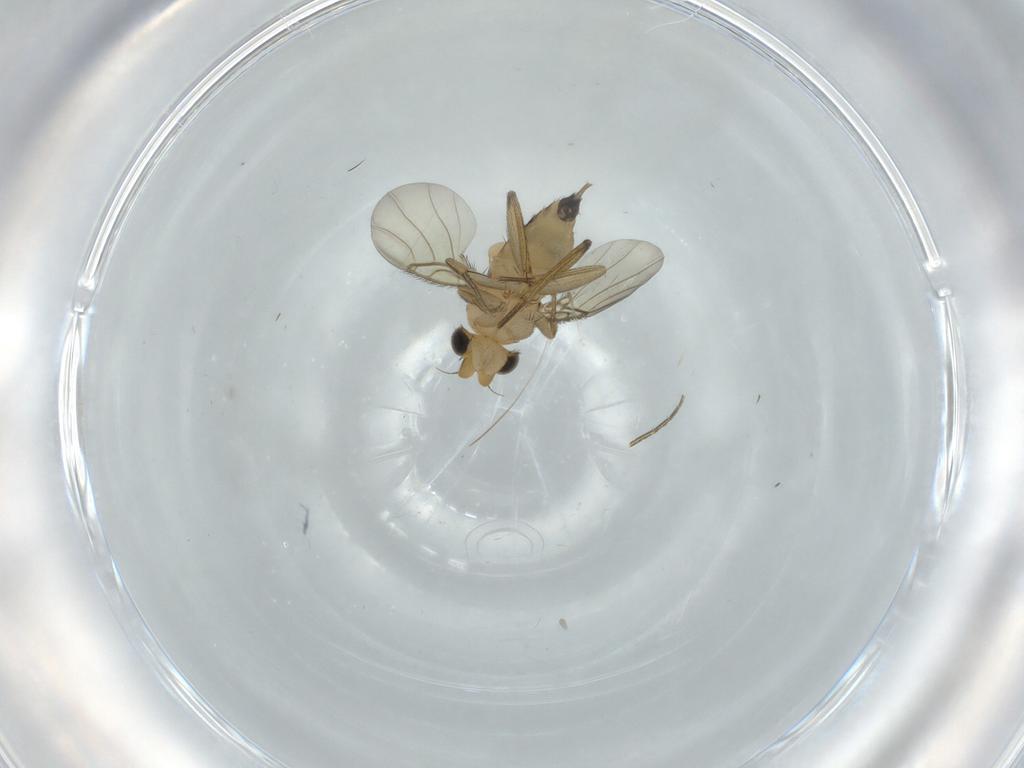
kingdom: Animalia
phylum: Arthropoda
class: Insecta
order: Diptera
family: Phoridae
